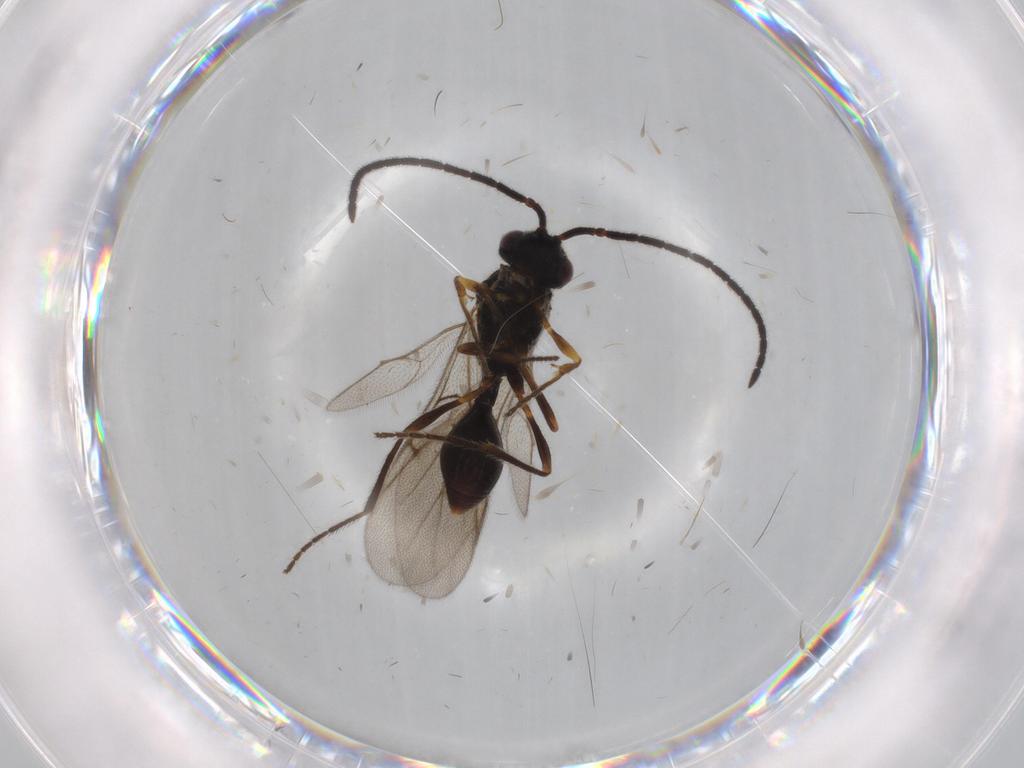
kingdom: Animalia
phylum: Arthropoda
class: Insecta
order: Hymenoptera
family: Diapriidae
